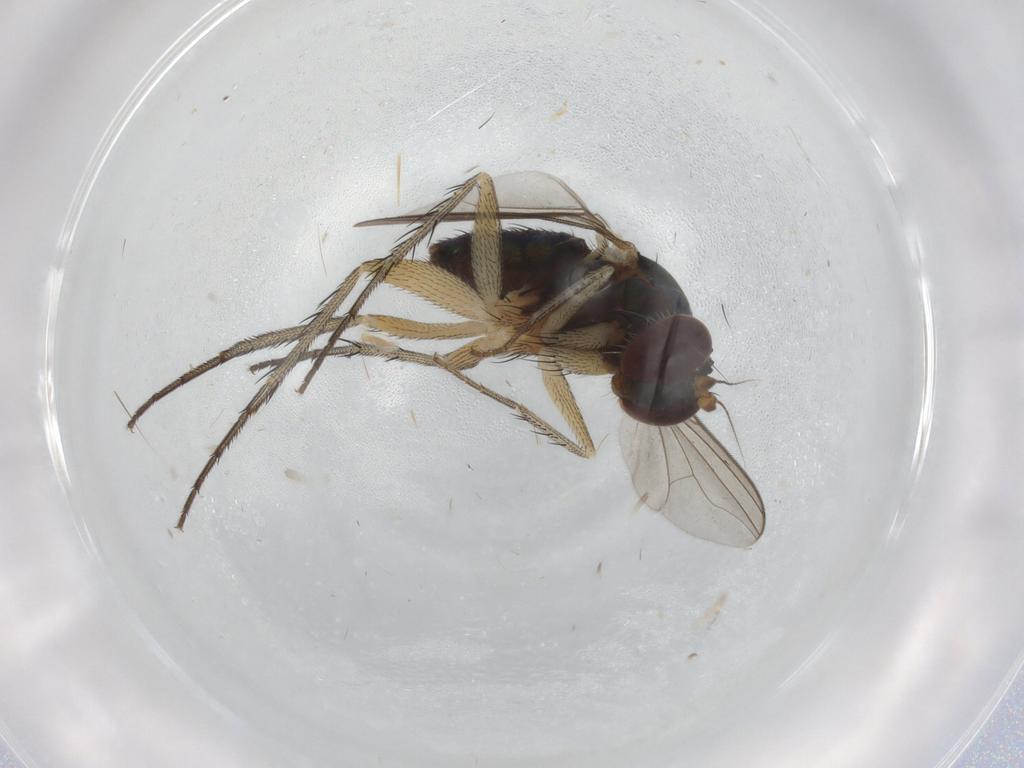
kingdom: Animalia
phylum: Arthropoda
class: Insecta
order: Diptera
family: Dolichopodidae
